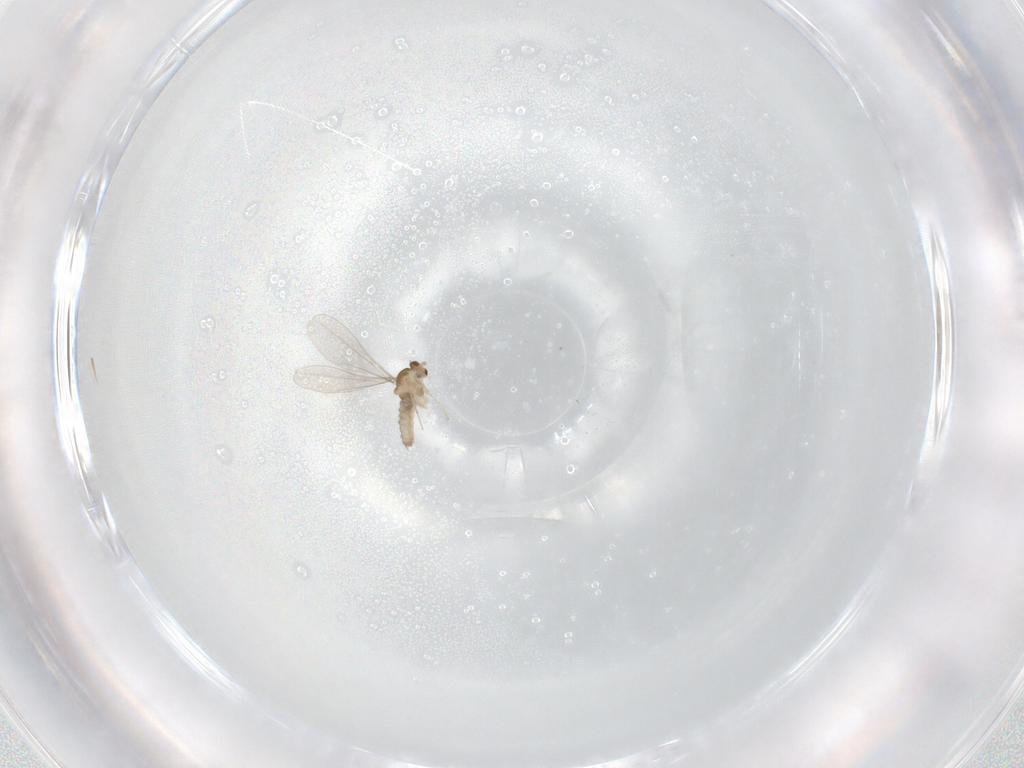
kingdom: Animalia
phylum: Arthropoda
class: Insecta
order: Diptera
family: Cecidomyiidae
